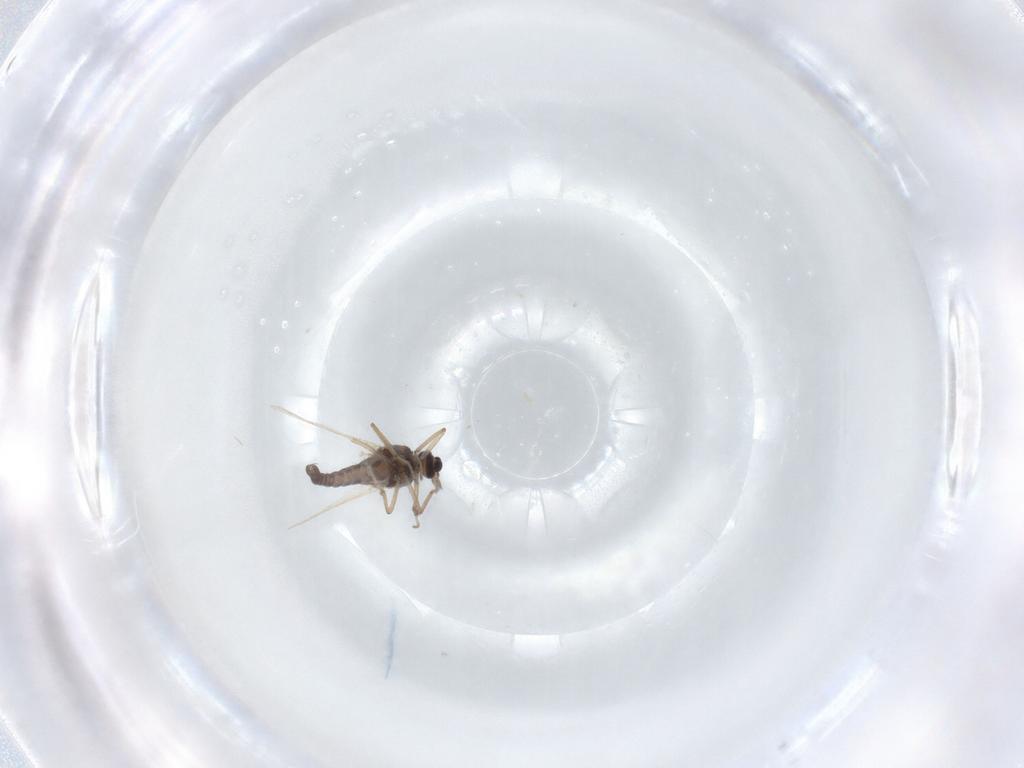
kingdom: Animalia
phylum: Arthropoda
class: Insecta
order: Diptera
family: Ceratopogonidae
